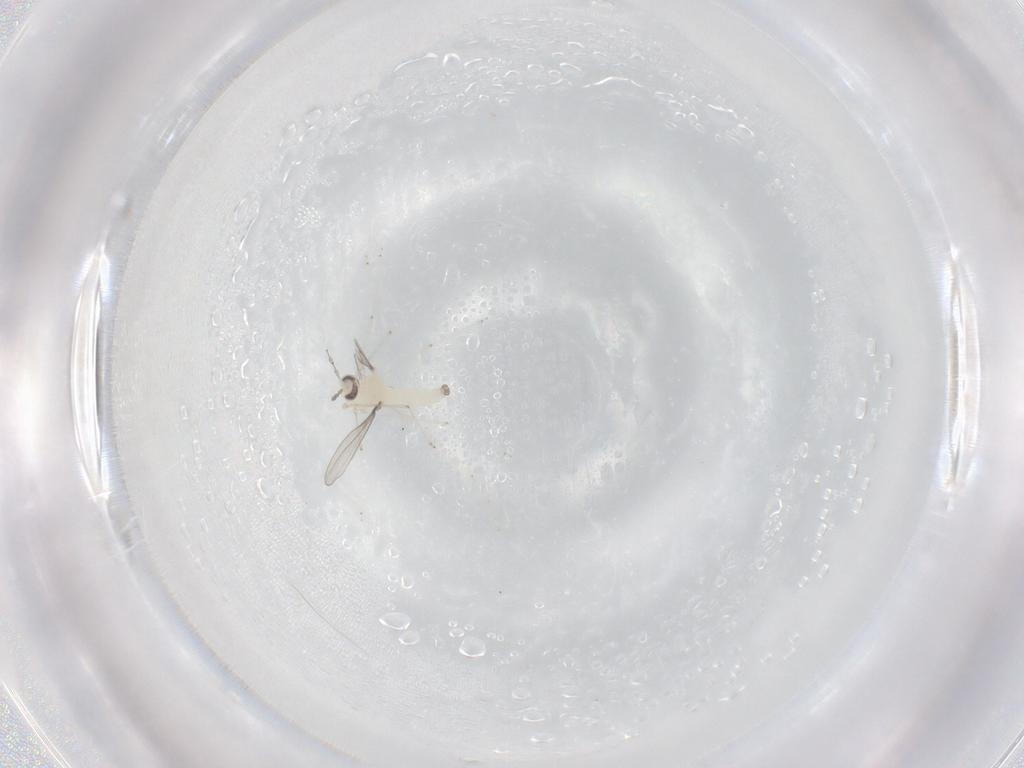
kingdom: Animalia
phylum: Arthropoda
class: Insecta
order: Diptera
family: Cecidomyiidae
